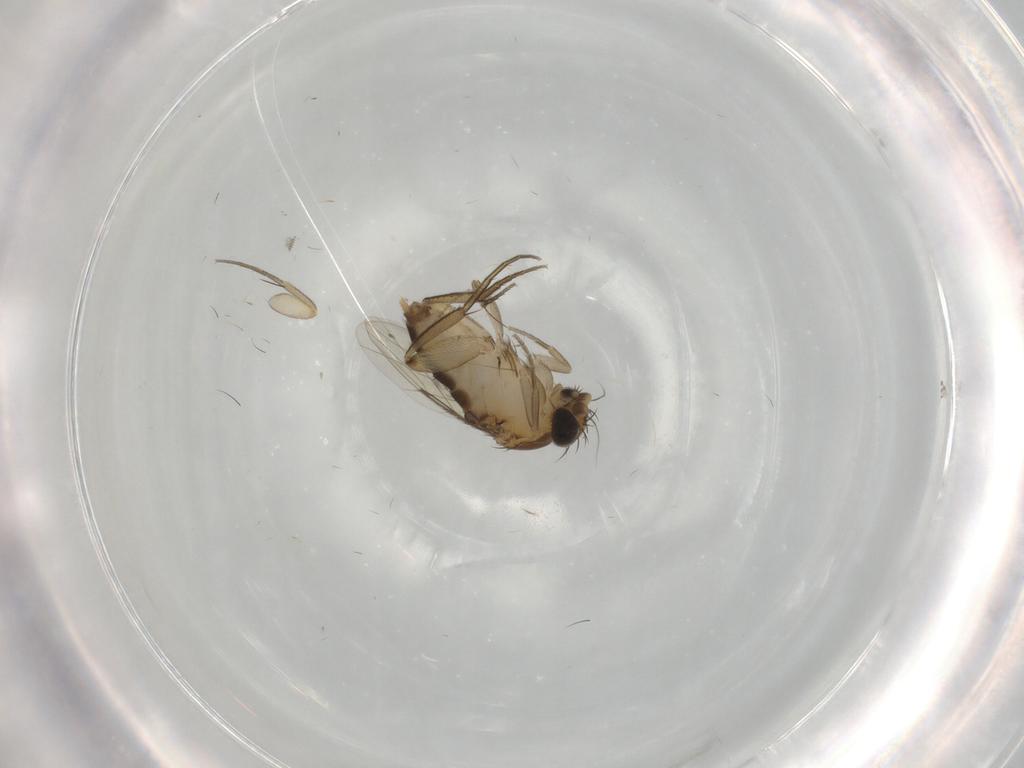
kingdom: Animalia
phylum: Arthropoda
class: Insecta
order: Diptera
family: Sciaridae
